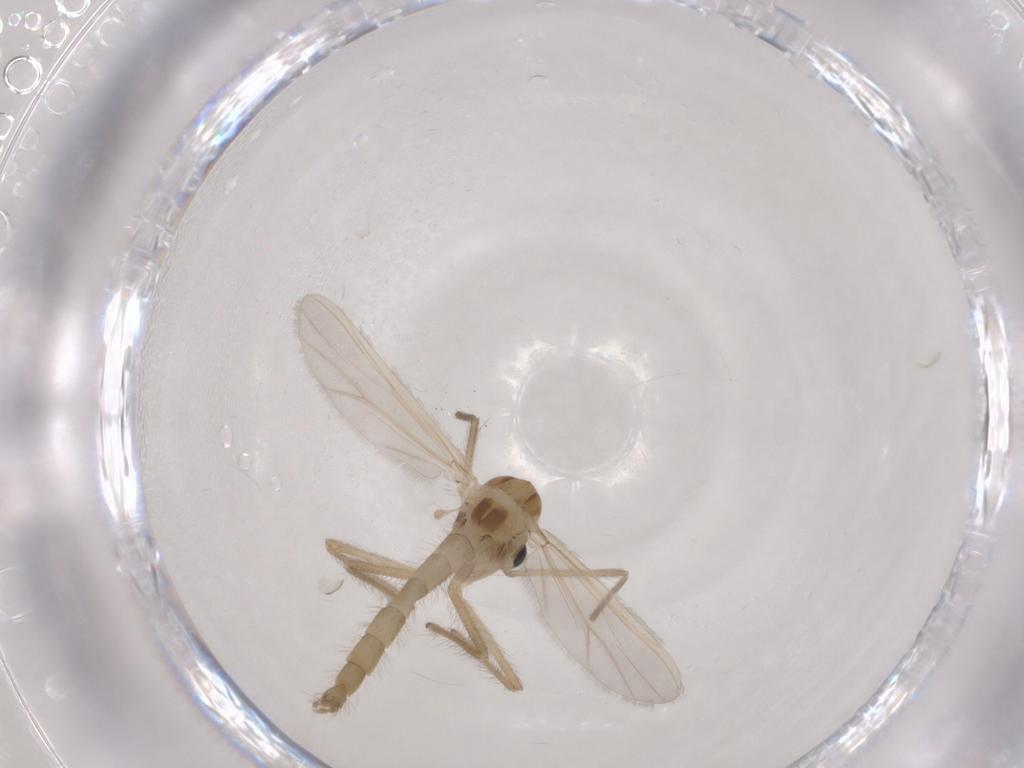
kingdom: Animalia
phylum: Arthropoda
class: Insecta
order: Diptera
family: Chironomidae
